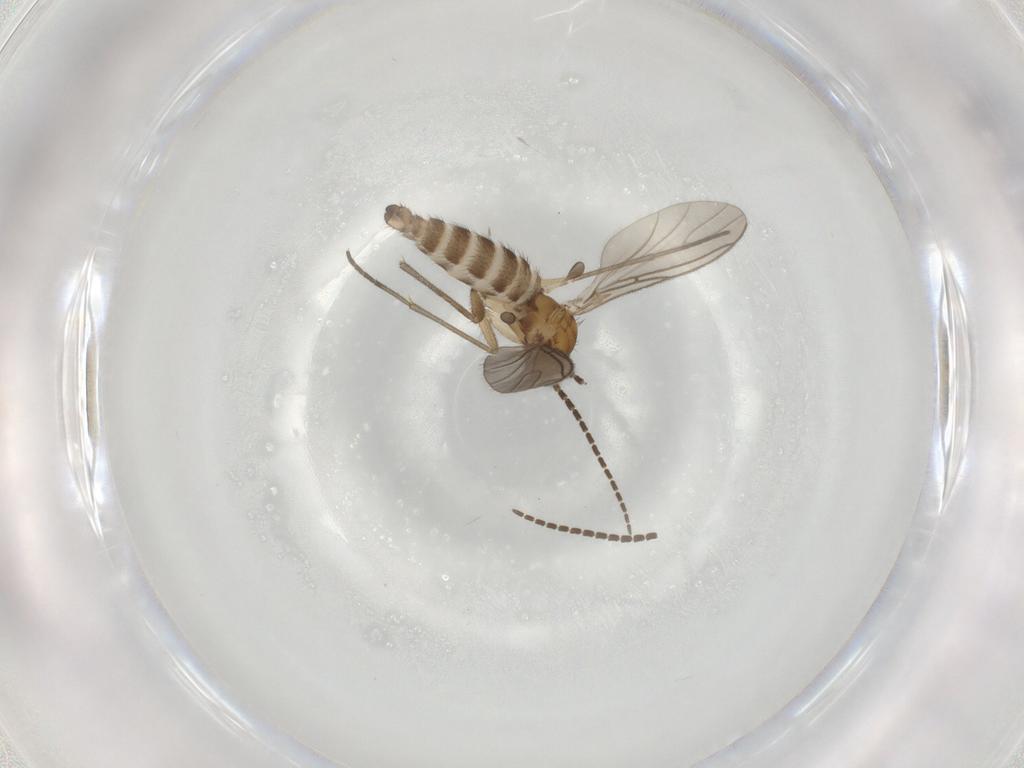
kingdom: Animalia
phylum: Arthropoda
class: Insecta
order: Diptera
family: Sciaridae
